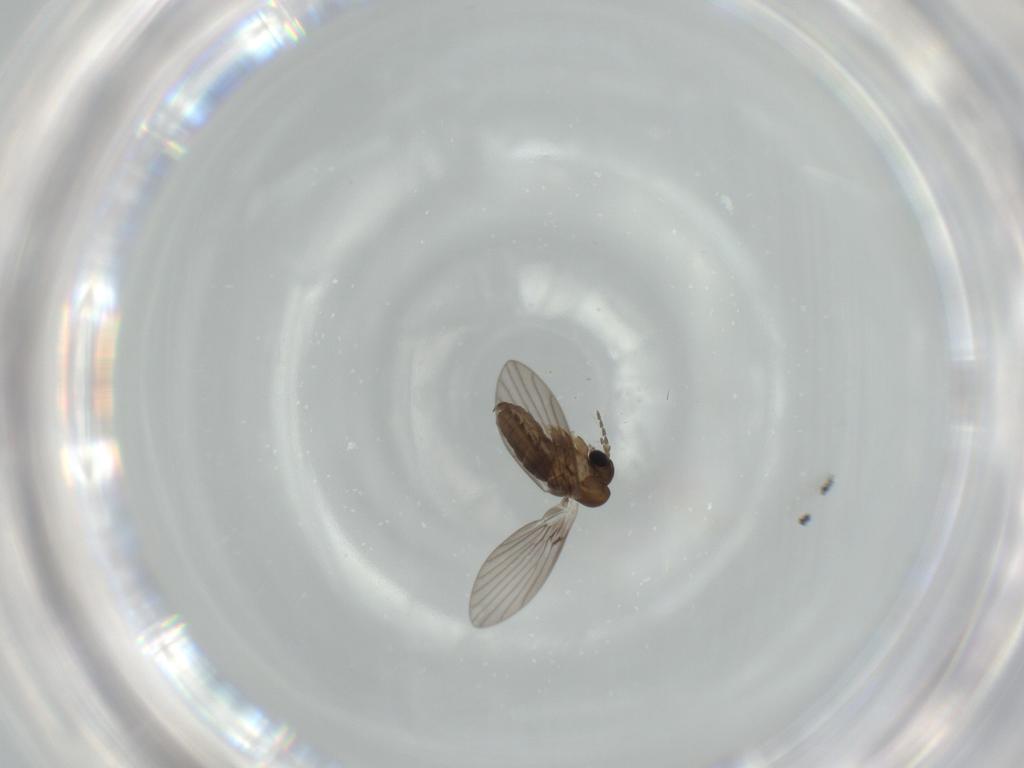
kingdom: Animalia
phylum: Arthropoda
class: Insecta
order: Diptera
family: Psychodidae
